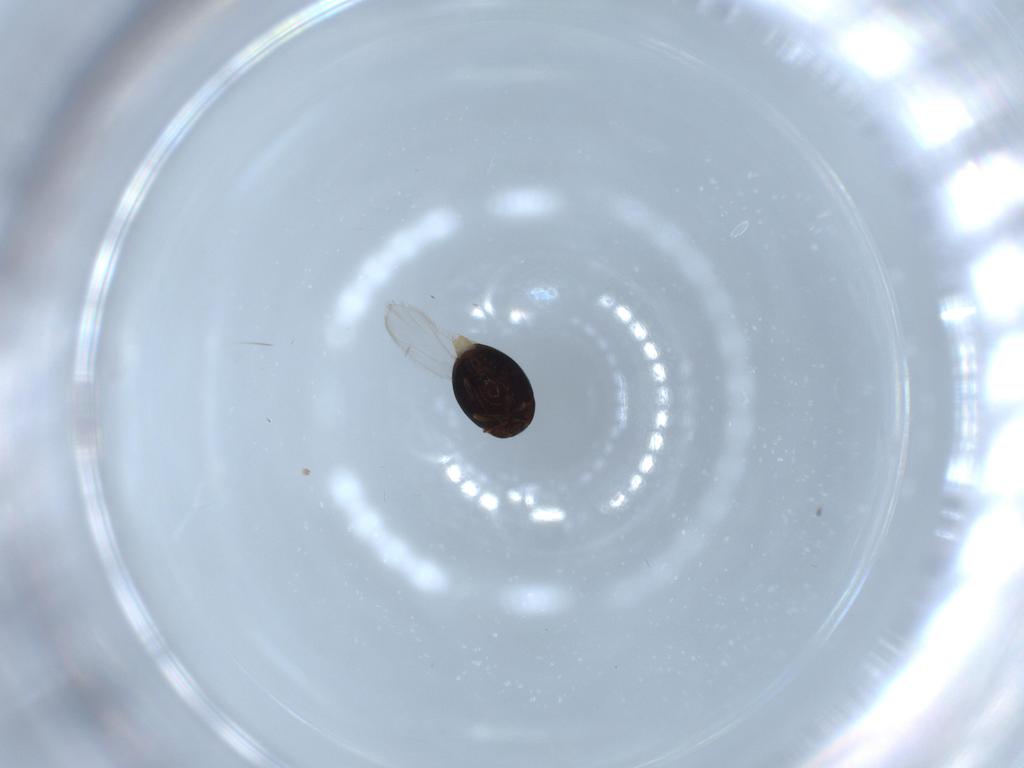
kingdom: Animalia
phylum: Arthropoda
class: Insecta
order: Coleoptera
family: Corylophidae
